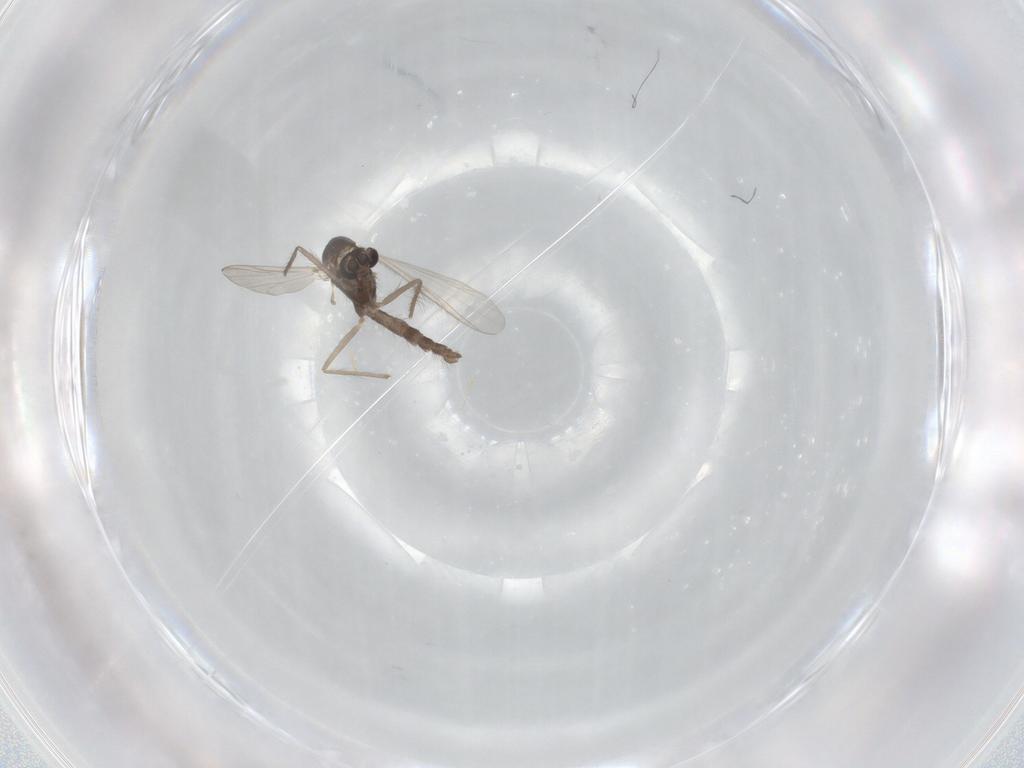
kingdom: Animalia
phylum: Arthropoda
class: Insecta
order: Diptera
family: Chironomidae
